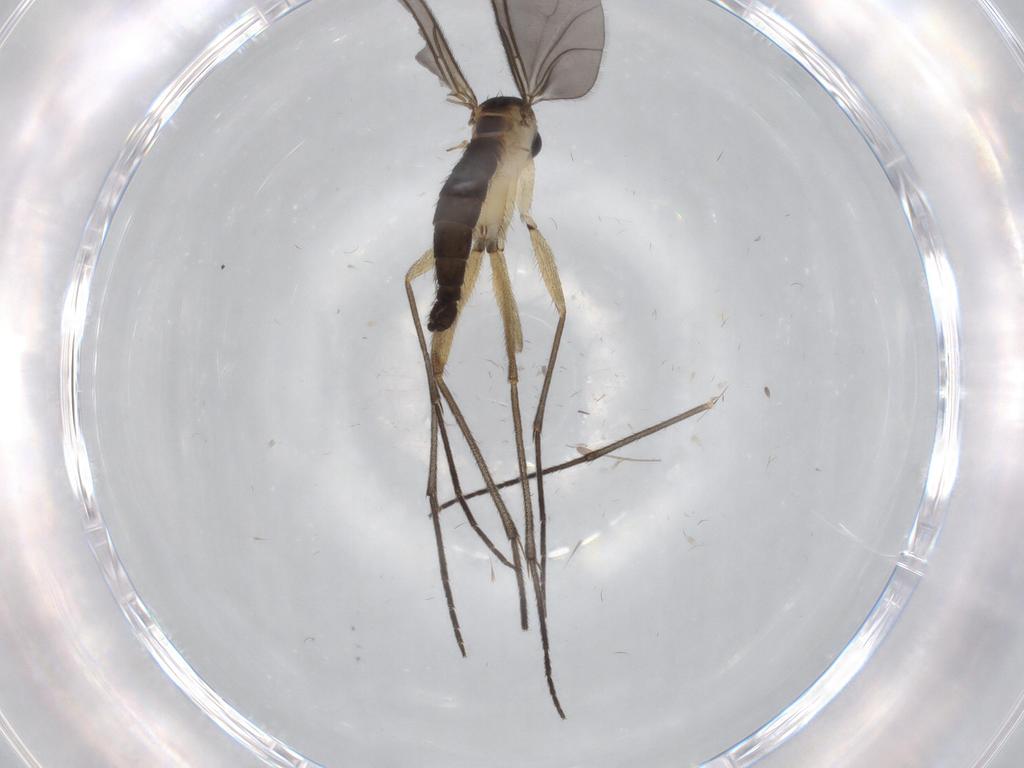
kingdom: Animalia
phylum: Arthropoda
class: Insecta
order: Diptera
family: Sciaridae
